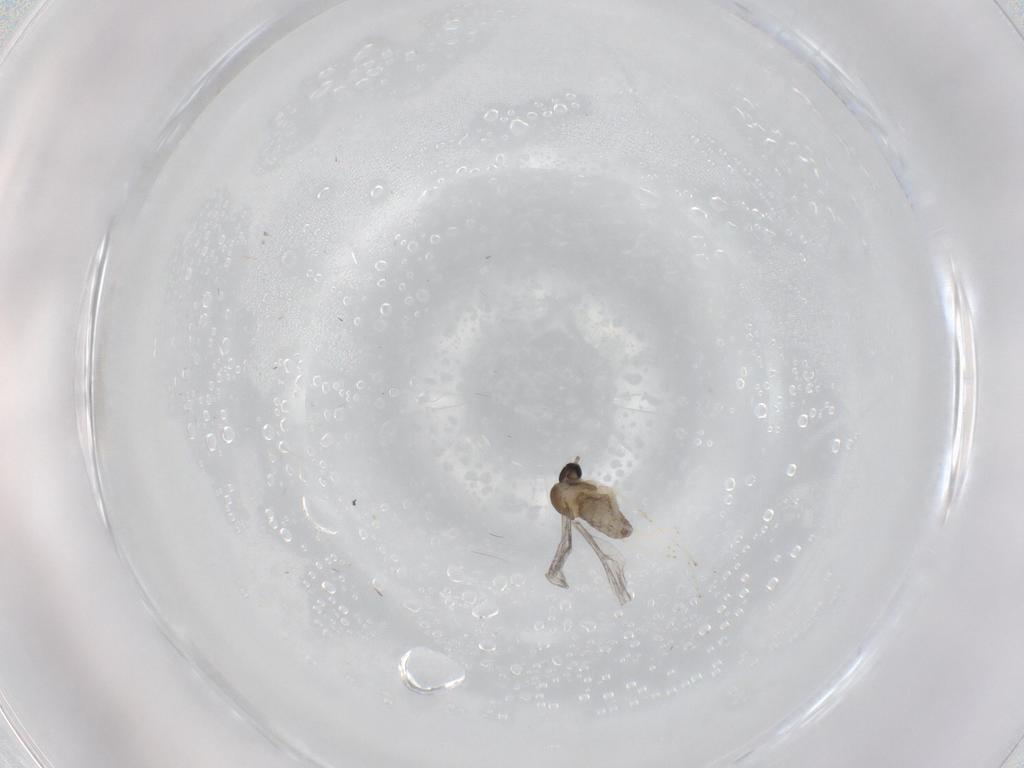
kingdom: Animalia
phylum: Arthropoda
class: Insecta
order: Diptera
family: Cecidomyiidae
